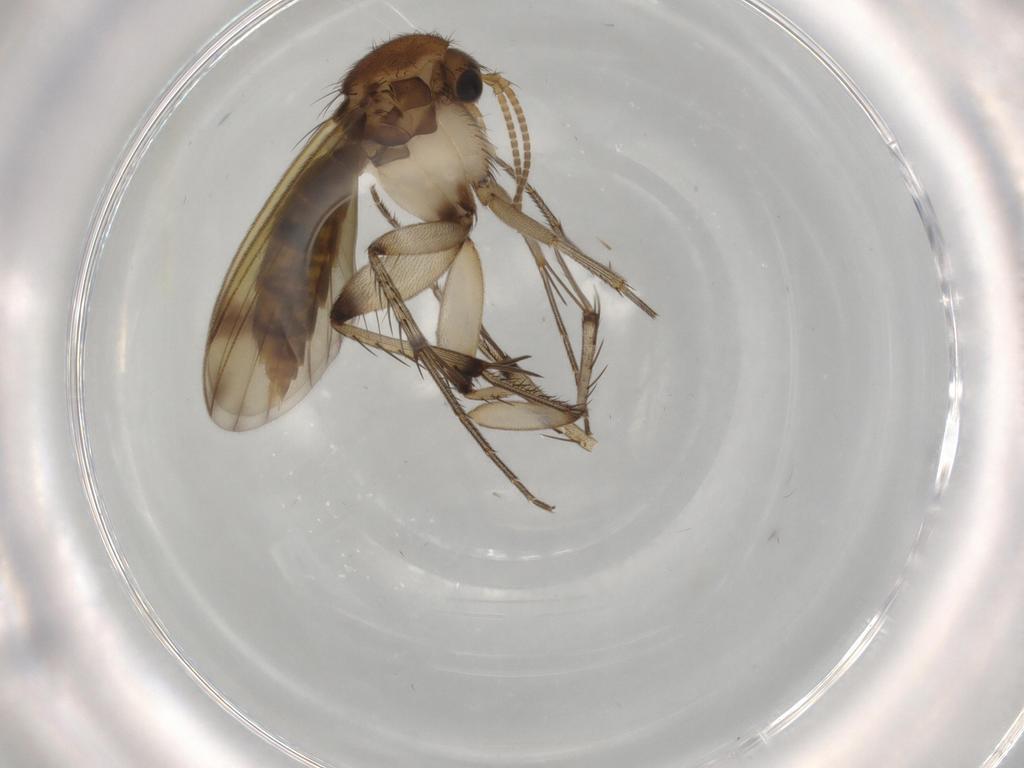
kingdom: Animalia
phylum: Arthropoda
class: Insecta
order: Diptera
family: Mycetophilidae
